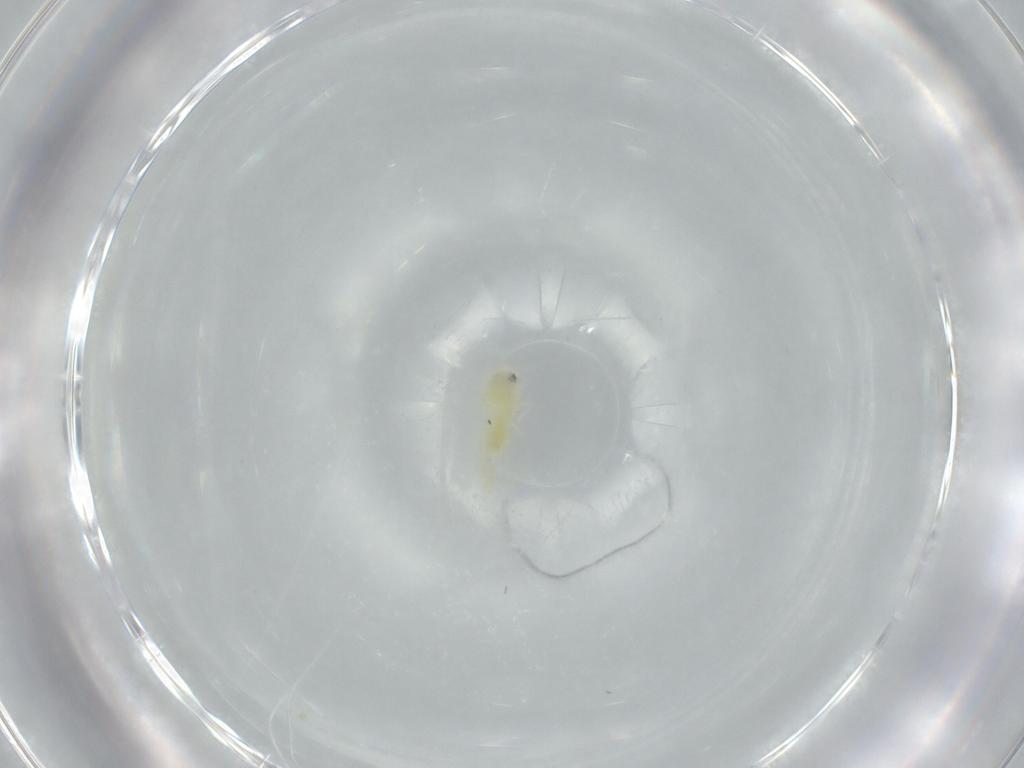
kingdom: Animalia
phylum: Arthropoda
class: Insecta
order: Hemiptera
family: Aleyrodidae
